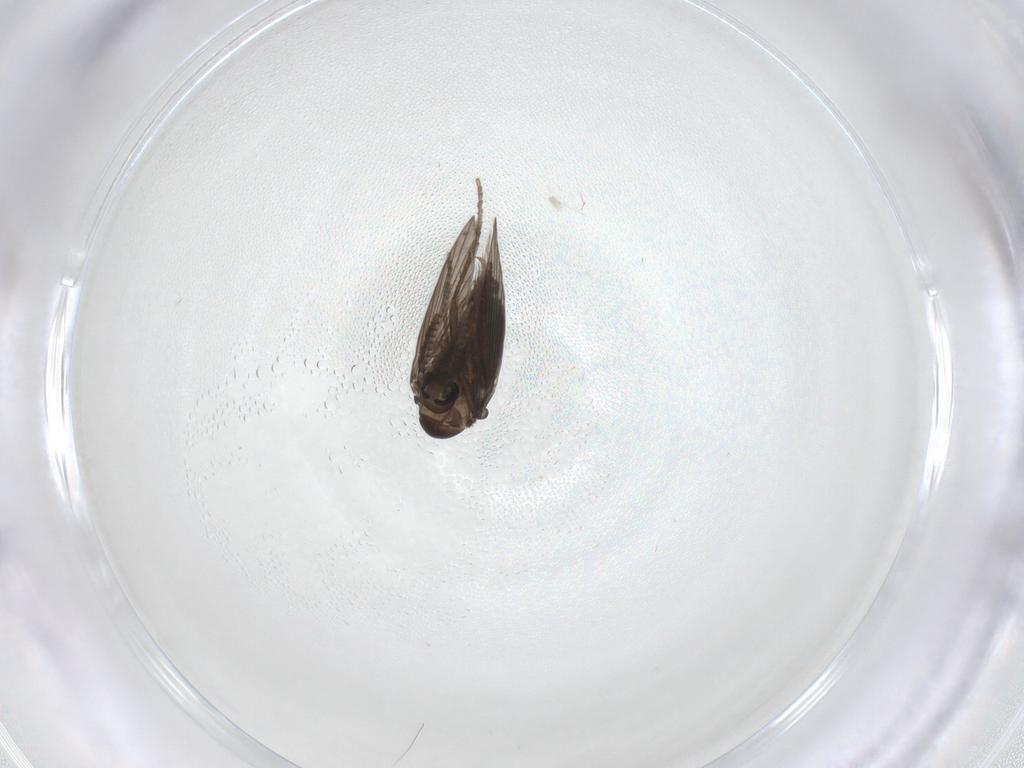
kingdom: Animalia
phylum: Arthropoda
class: Insecta
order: Diptera
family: Psychodidae
